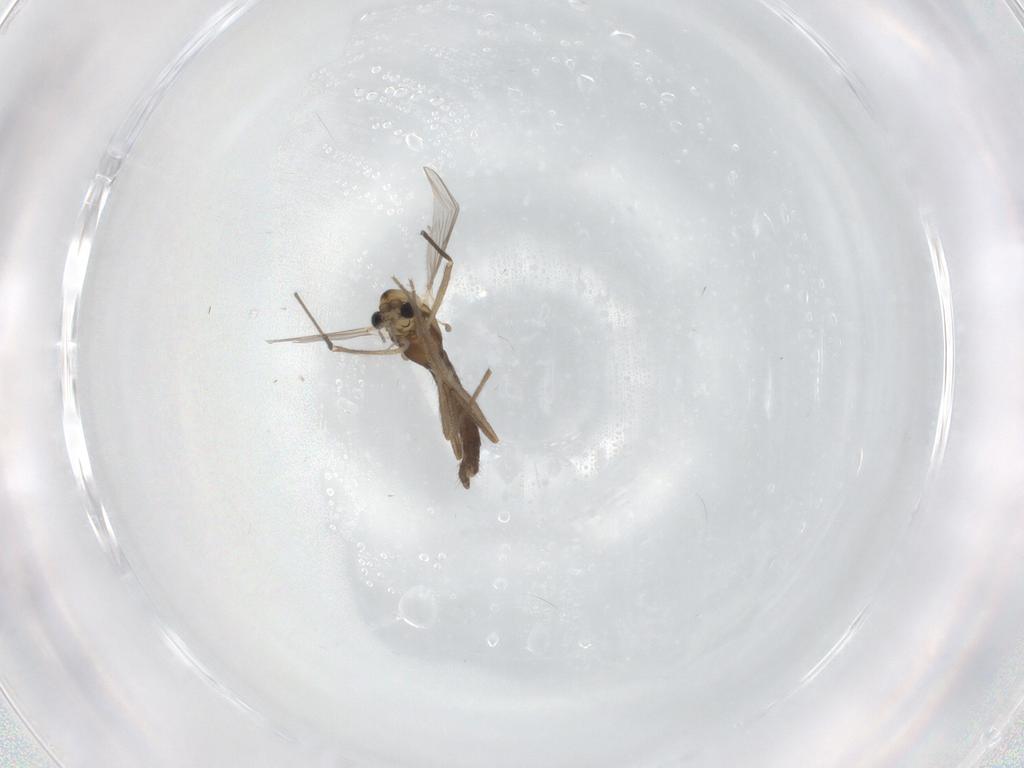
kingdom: Animalia
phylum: Arthropoda
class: Insecta
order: Diptera
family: Chironomidae
